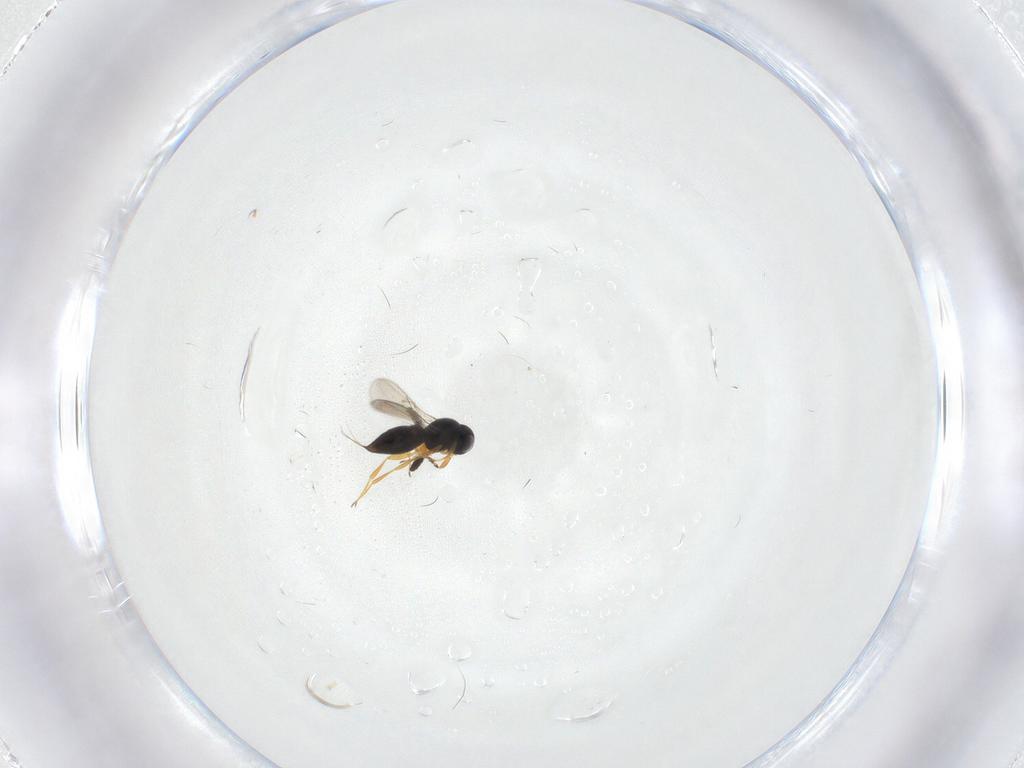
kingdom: Animalia
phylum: Arthropoda
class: Insecta
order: Hymenoptera
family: Scelionidae
